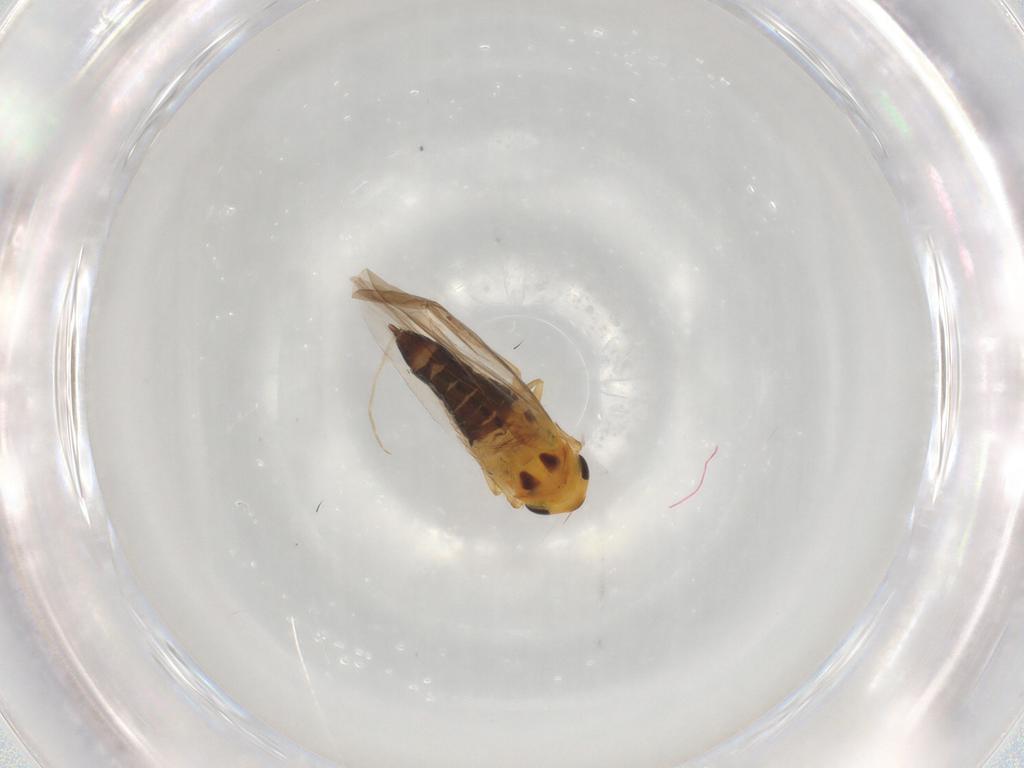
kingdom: Animalia
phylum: Arthropoda
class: Insecta
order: Hemiptera
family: Cicadellidae
